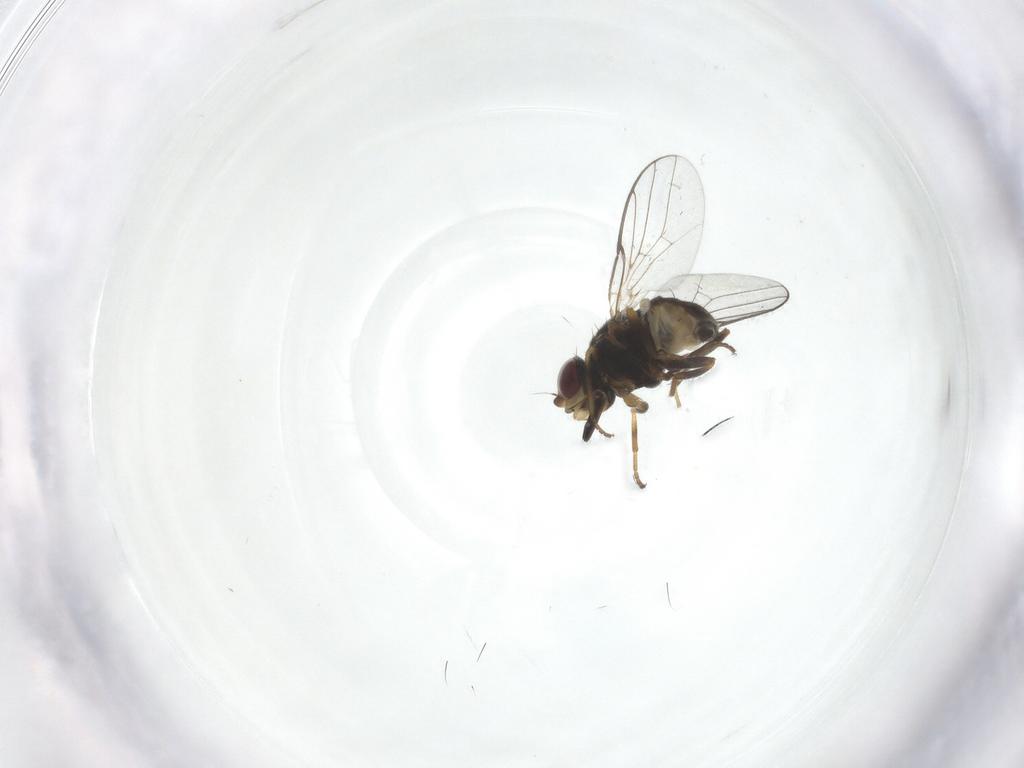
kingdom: Animalia
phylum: Arthropoda
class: Insecta
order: Diptera
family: Chloropidae
